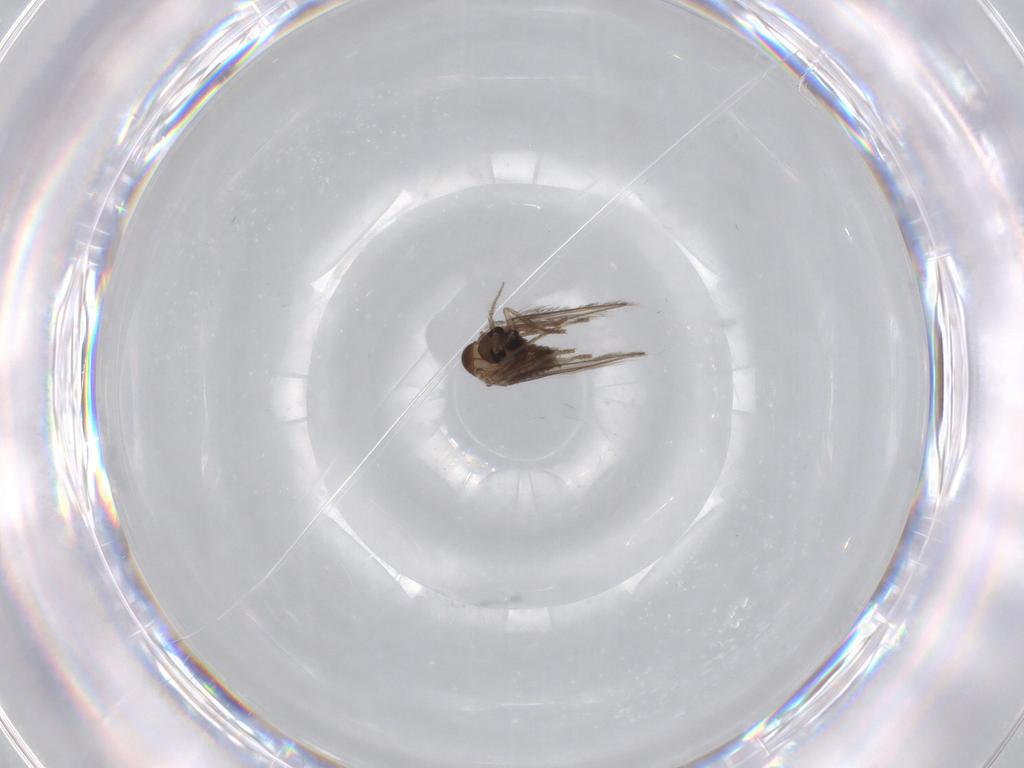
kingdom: Animalia
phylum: Arthropoda
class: Insecta
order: Diptera
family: Psychodidae
